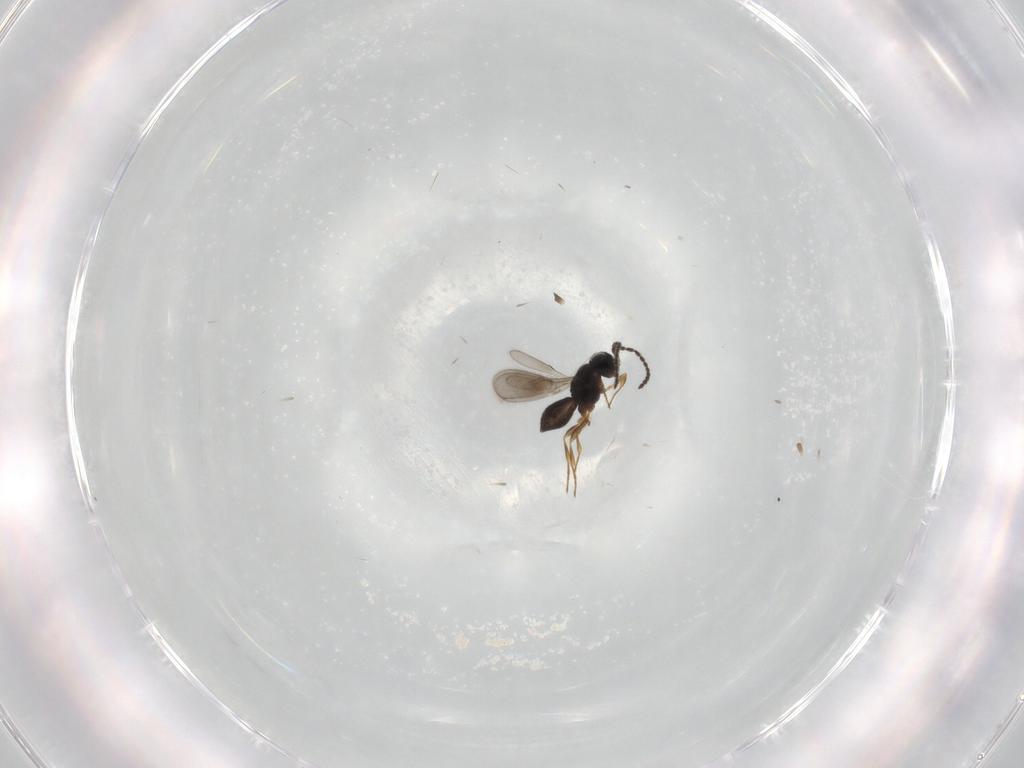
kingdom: Animalia
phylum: Arthropoda
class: Insecta
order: Hymenoptera
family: Scelionidae
